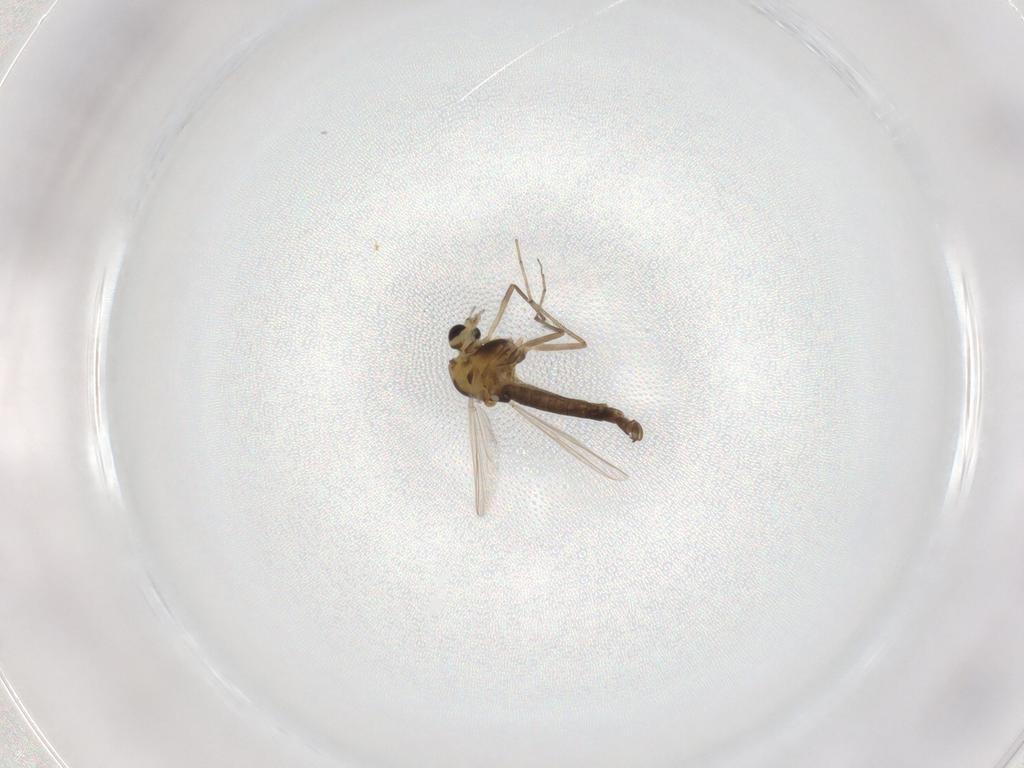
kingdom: Animalia
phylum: Arthropoda
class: Insecta
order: Diptera
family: Chironomidae
